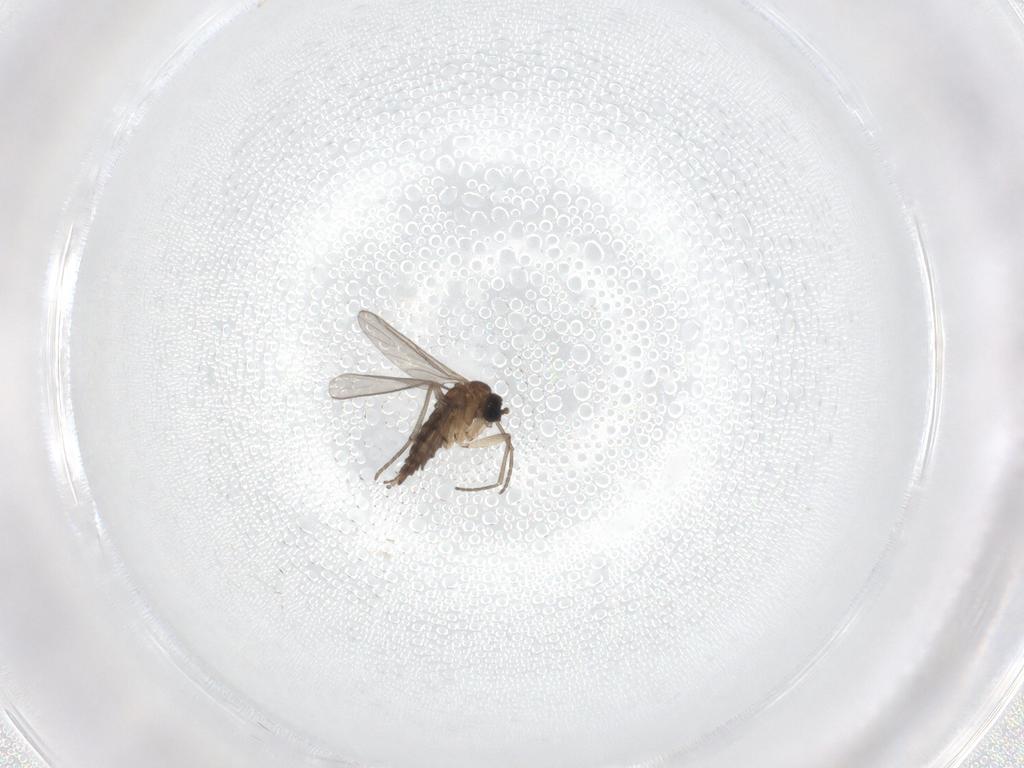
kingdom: Animalia
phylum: Arthropoda
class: Insecta
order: Diptera
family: Sciaridae
